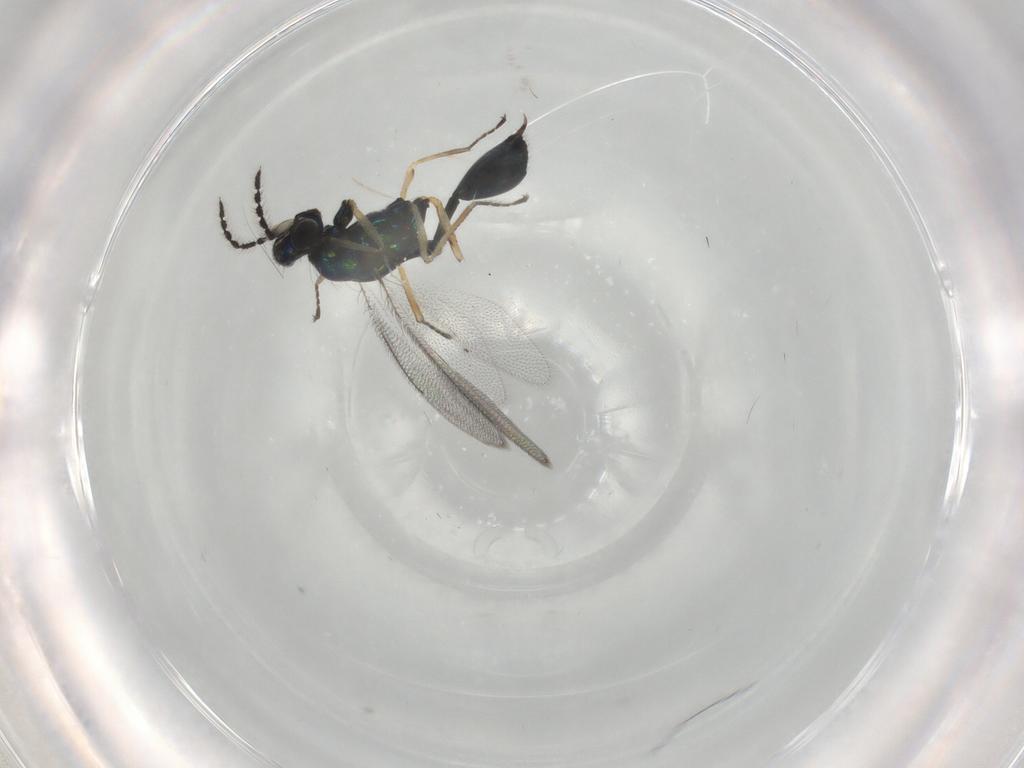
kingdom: Animalia
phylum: Arthropoda
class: Insecta
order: Hymenoptera
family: Eulophidae
